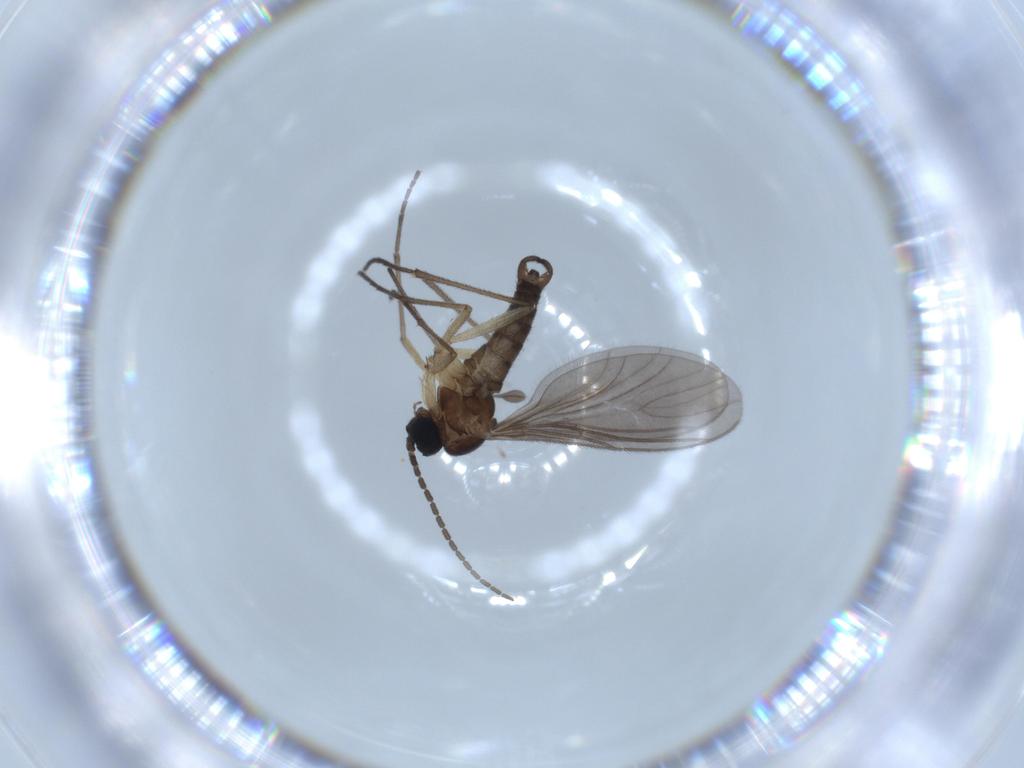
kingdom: Animalia
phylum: Arthropoda
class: Insecta
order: Diptera
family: Sciaridae
